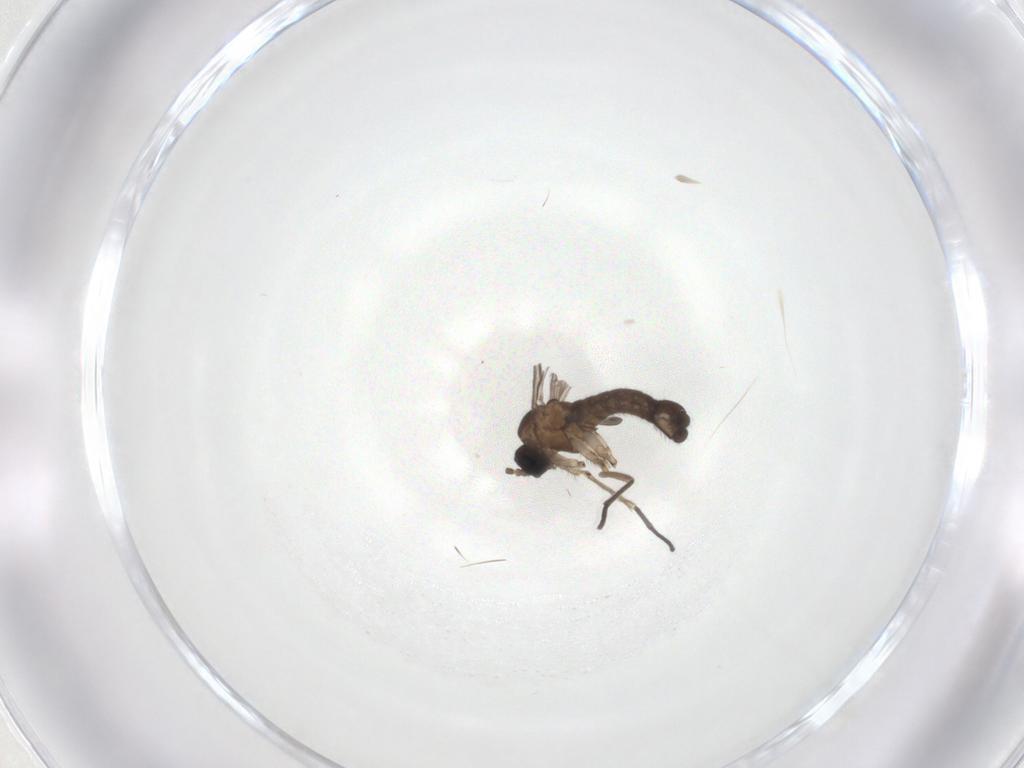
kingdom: Animalia
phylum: Arthropoda
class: Insecta
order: Diptera
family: Sciaridae
